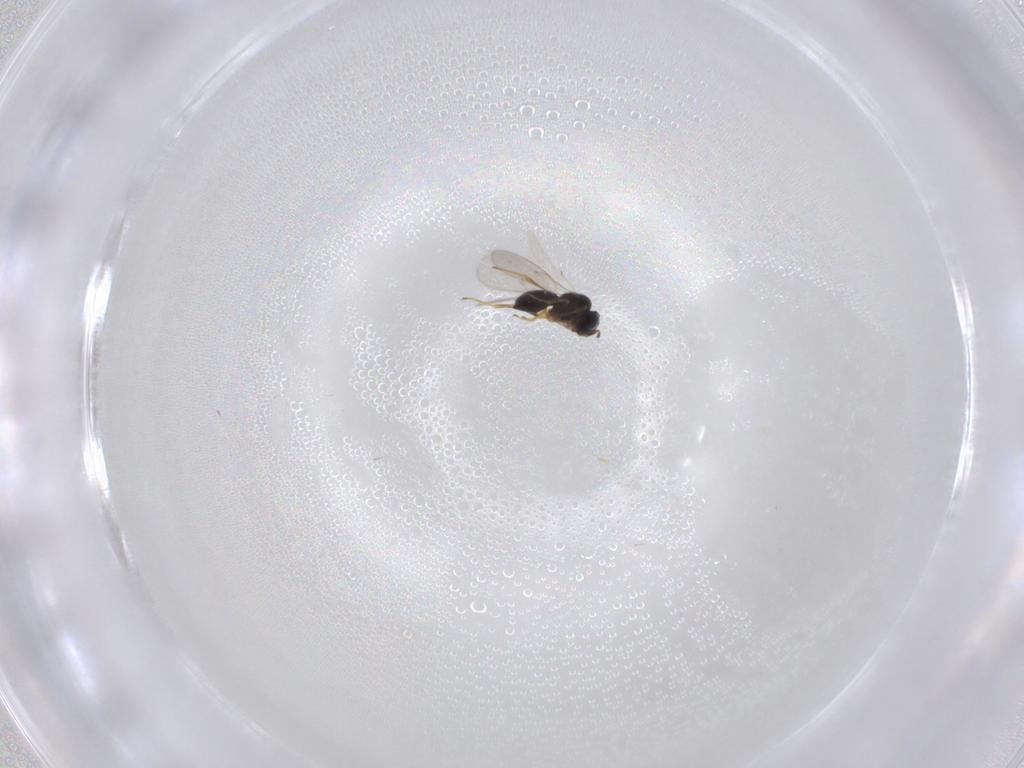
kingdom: Animalia
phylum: Arthropoda
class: Insecta
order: Hymenoptera
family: Scelionidae
